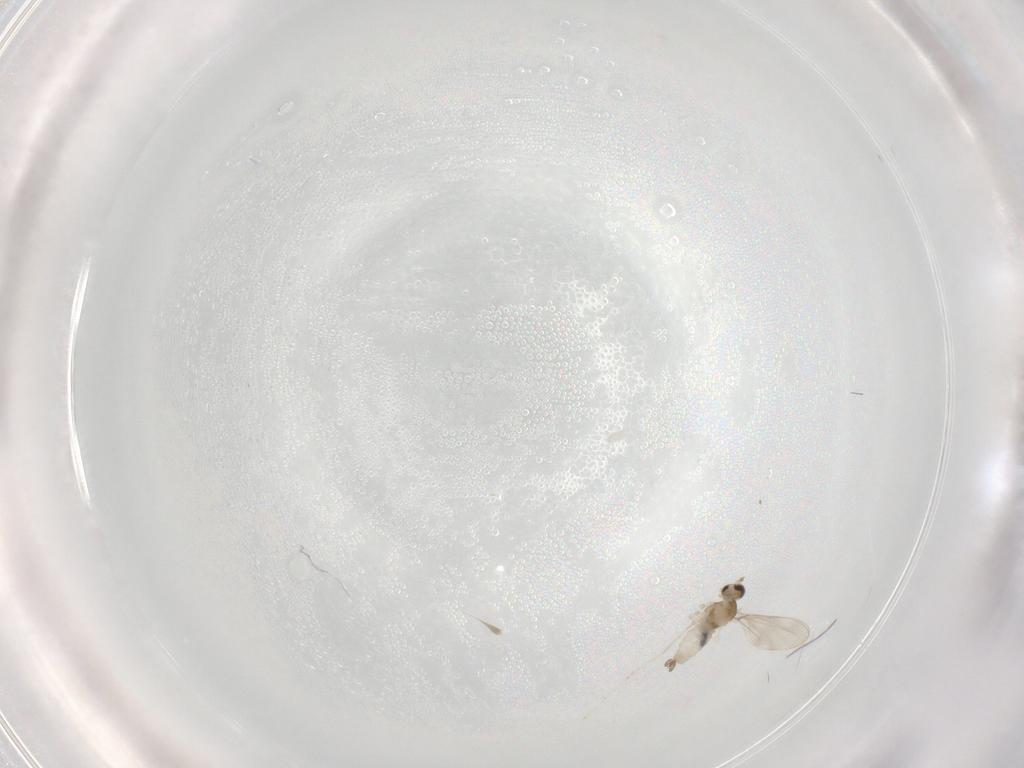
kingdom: Animalia
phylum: Arthropoda
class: Insecta
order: Diptera
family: Cecidomyiidae
